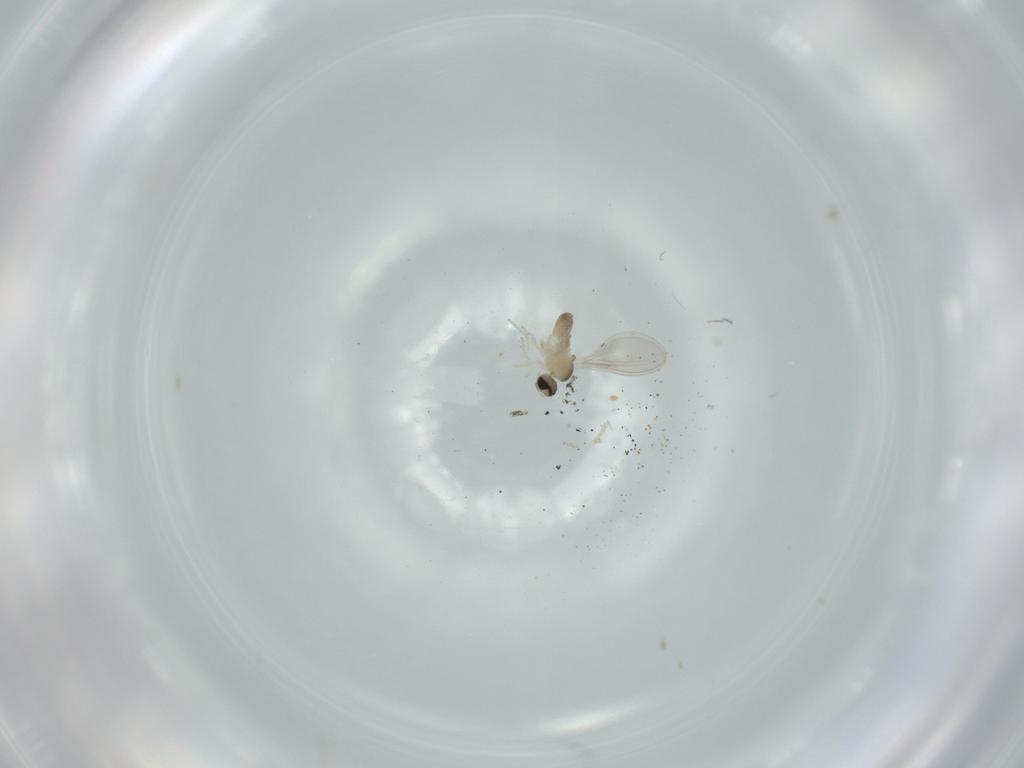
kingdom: Animalia
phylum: Arthropoda
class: Insecta
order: Diptera
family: Cecidomyiidae
